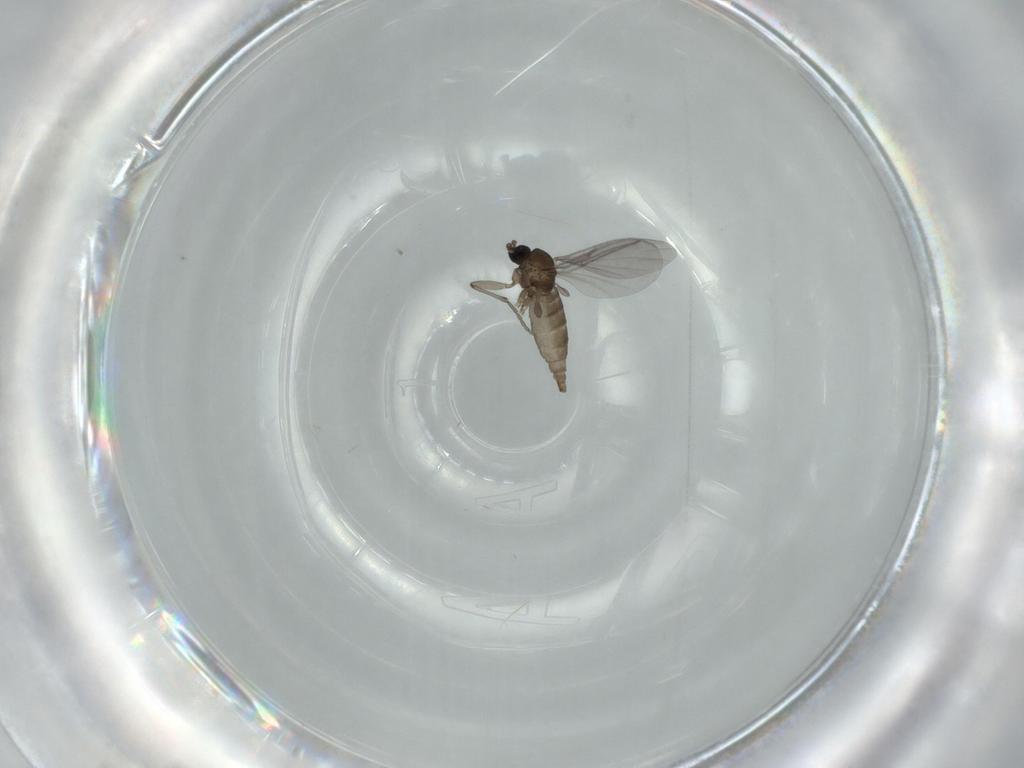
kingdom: Animalia
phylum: Arthropoda
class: Insecta
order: Diptera
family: Sciaridae
